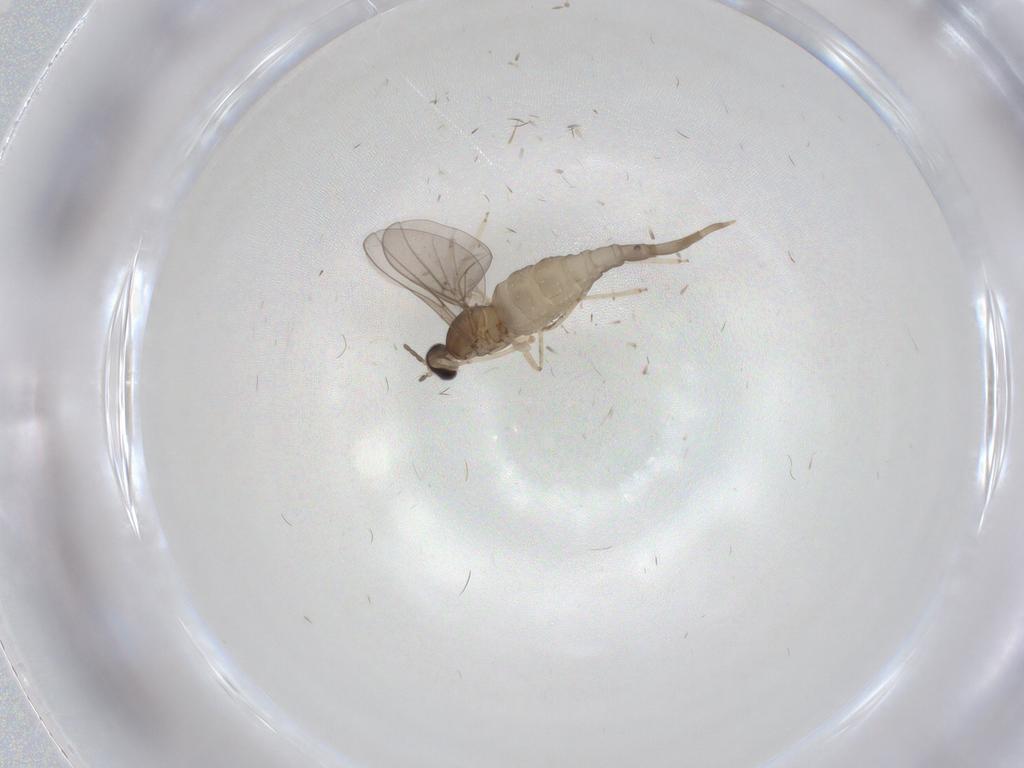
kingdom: Animalia
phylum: Arthropoda
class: Insecta
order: Diptera
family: Cecidomyiidae
